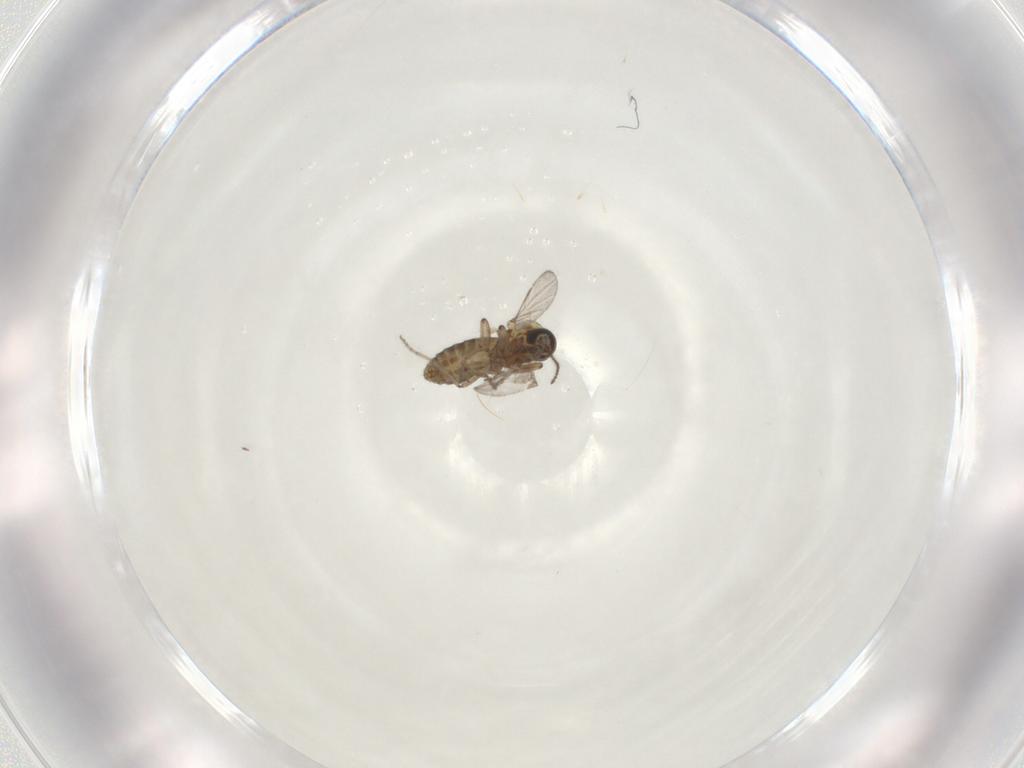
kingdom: Animalia
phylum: Arthropoda
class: Insecta
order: Diptera
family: Ceratopogonidae
